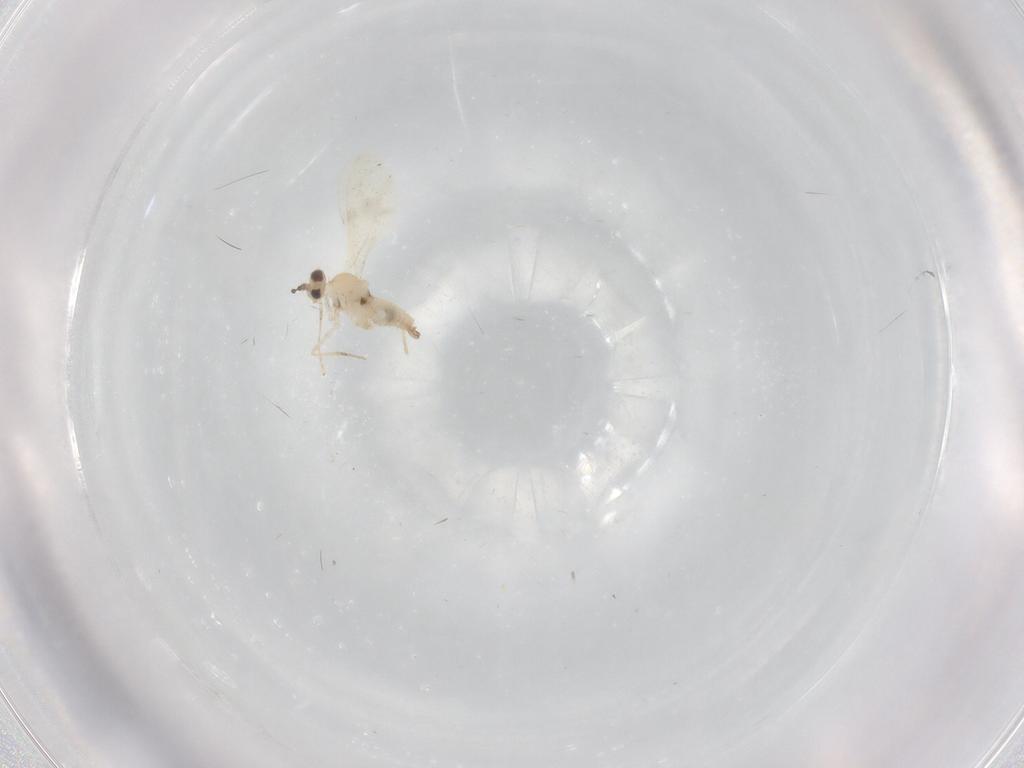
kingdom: Animalia
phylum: Arthropoda
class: Insecta
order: Diptera
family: Cecidomyiidae
